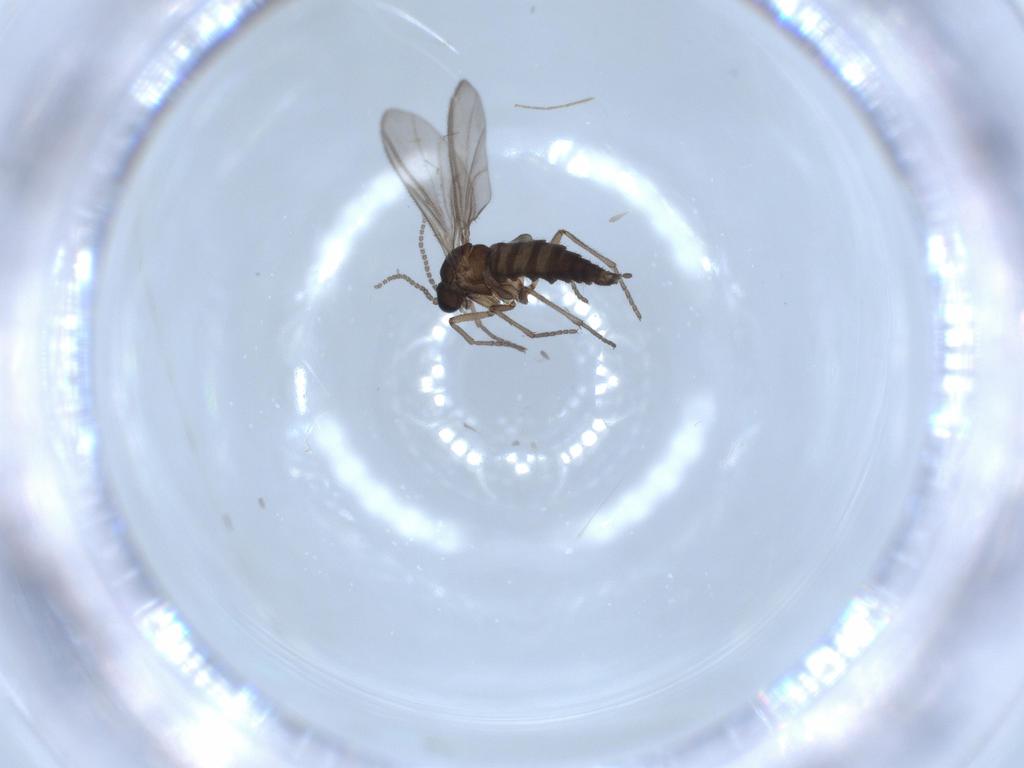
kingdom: Animalia
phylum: Arthropoda
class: Insecta
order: Diptera
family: Sciaridae
